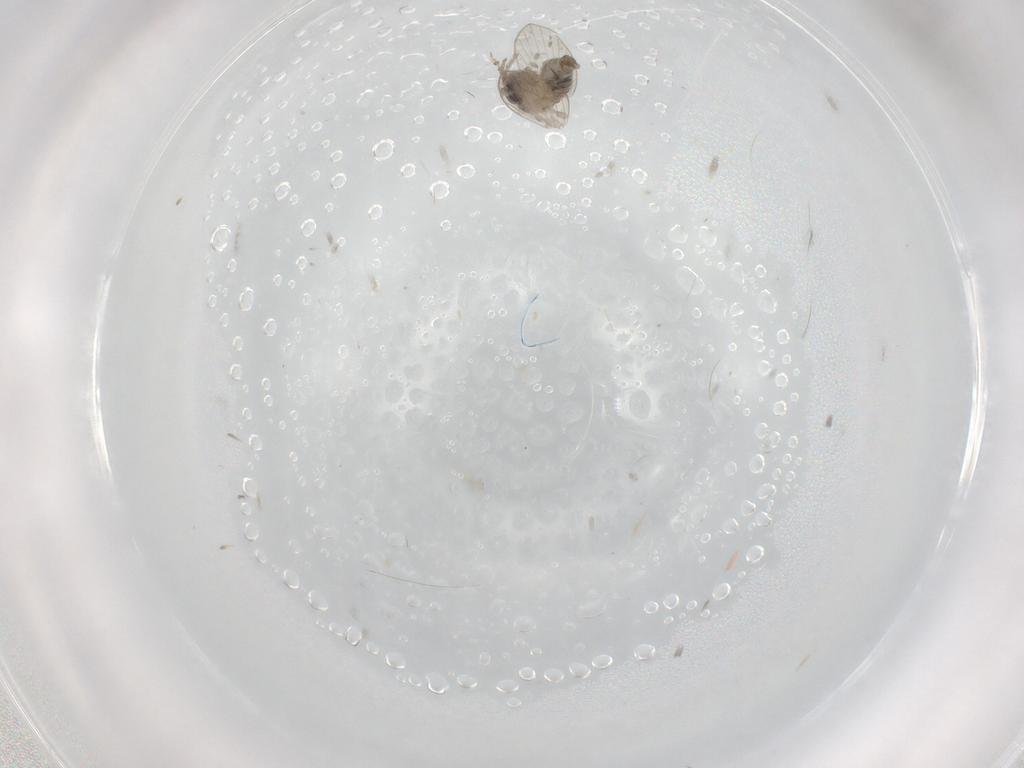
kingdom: Animalia
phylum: Arthropoda
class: Insecta
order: Diptera
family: Psychodidae
